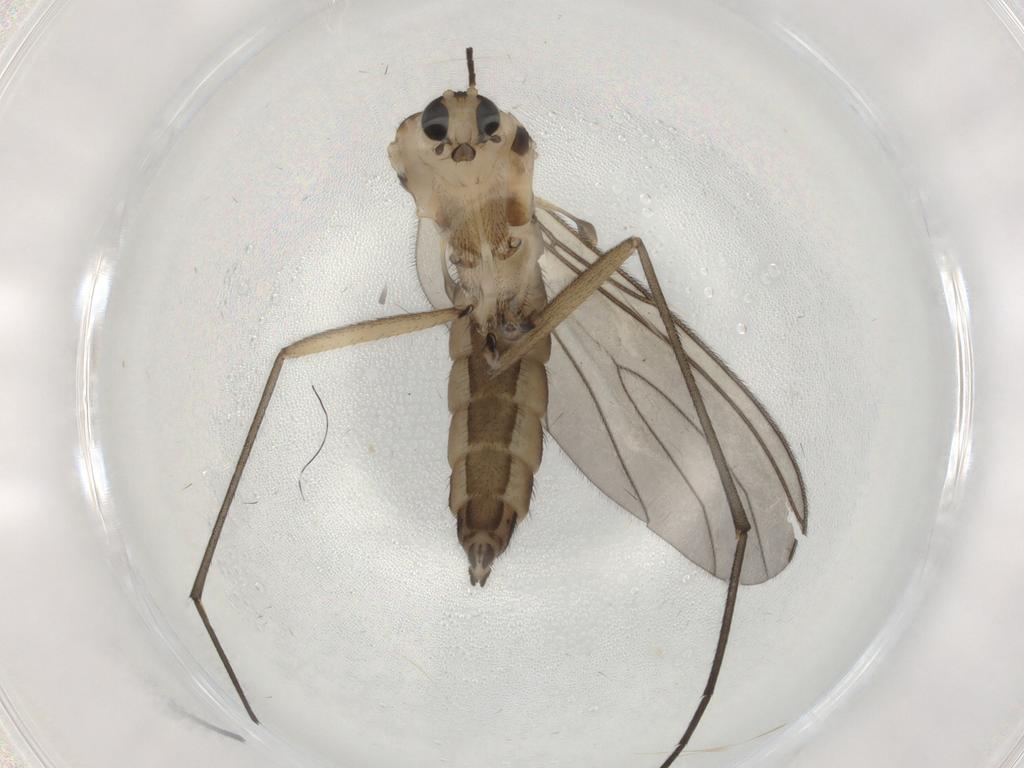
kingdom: Animalia
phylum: Arthropoda
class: Insecta
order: Diptera
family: Sciaridae
